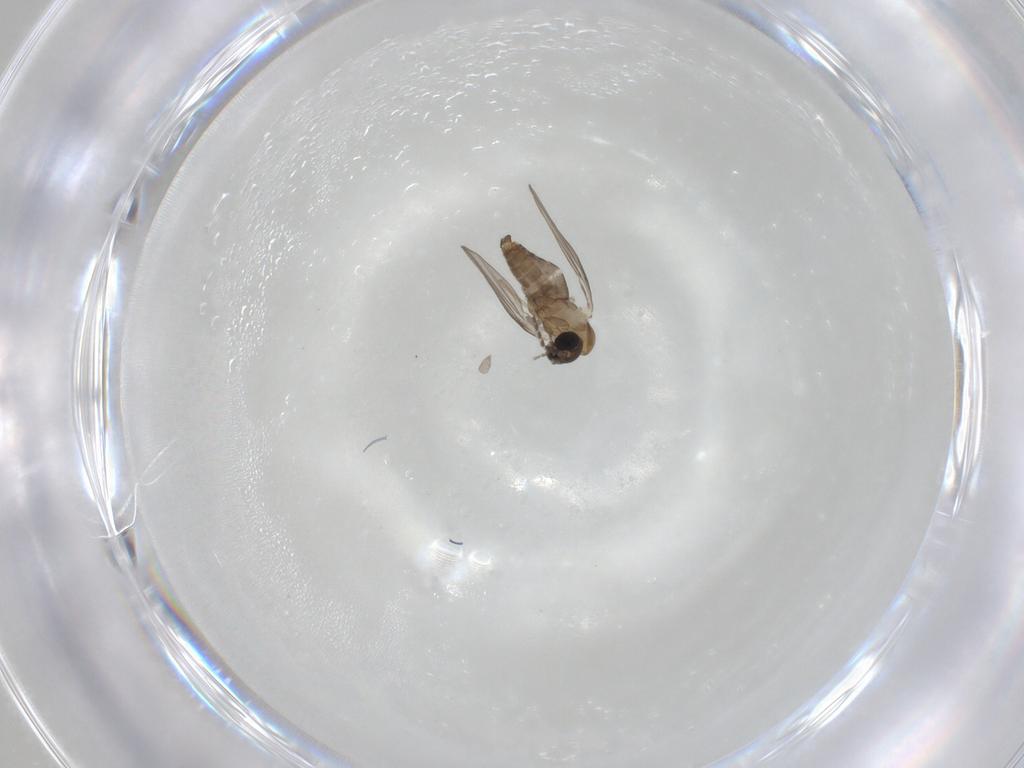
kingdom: Animalia
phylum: Arthropoda
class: Insecta
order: Diptera
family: Psychodidae
